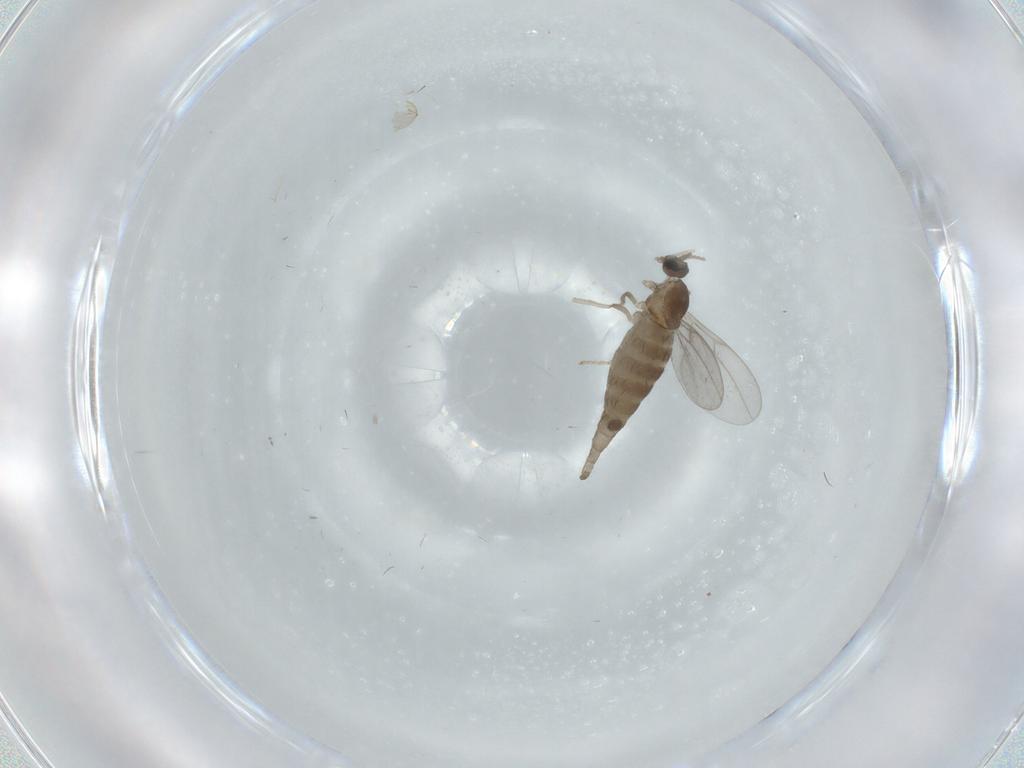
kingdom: Animalia
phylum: Arthropoda
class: Insecta
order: Diptera
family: Cecidomyiidae
